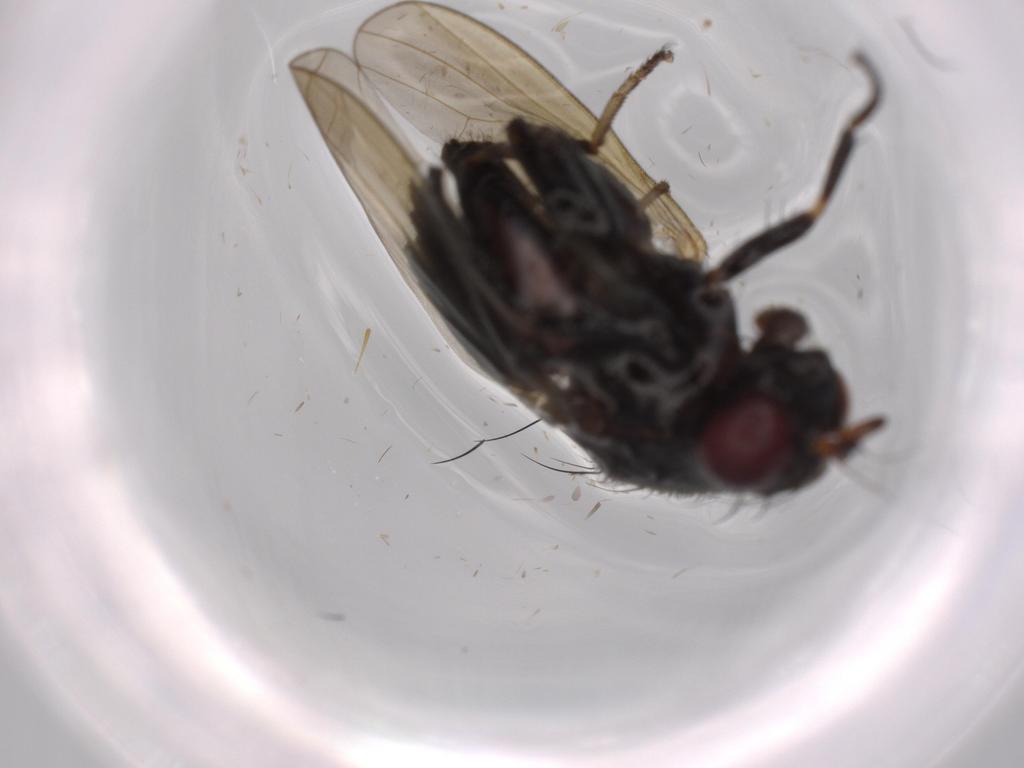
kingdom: Animalia
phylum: Arthropoda
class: Insecta
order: Diptera
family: Lauxaniidae
